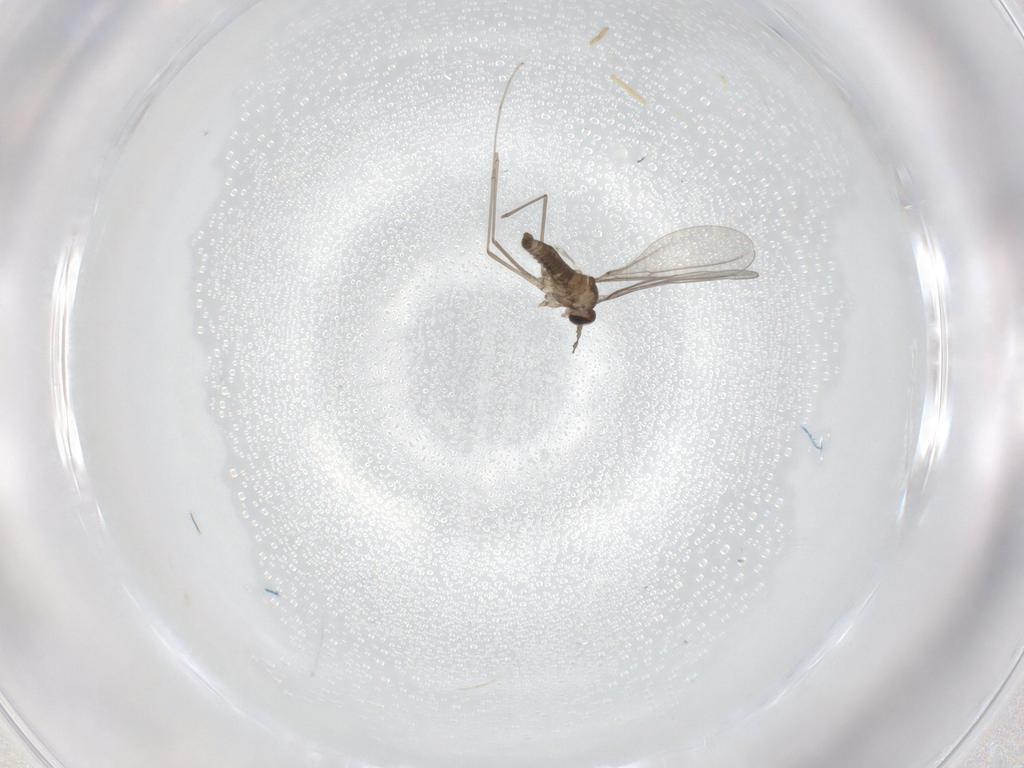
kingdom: Animalia
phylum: Arthropoda
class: Insecta
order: Diptera
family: Cecidomyiidae
